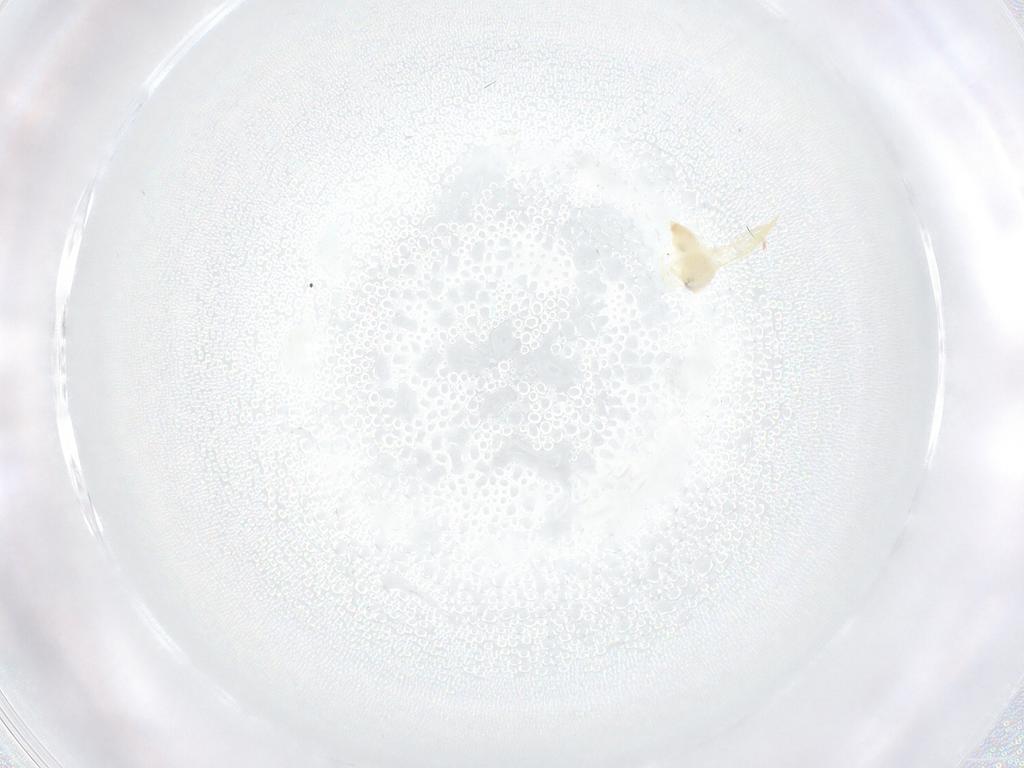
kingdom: Animalia
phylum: Arthropoda
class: Insecta
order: Hemiptera
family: Aleyrodidae
